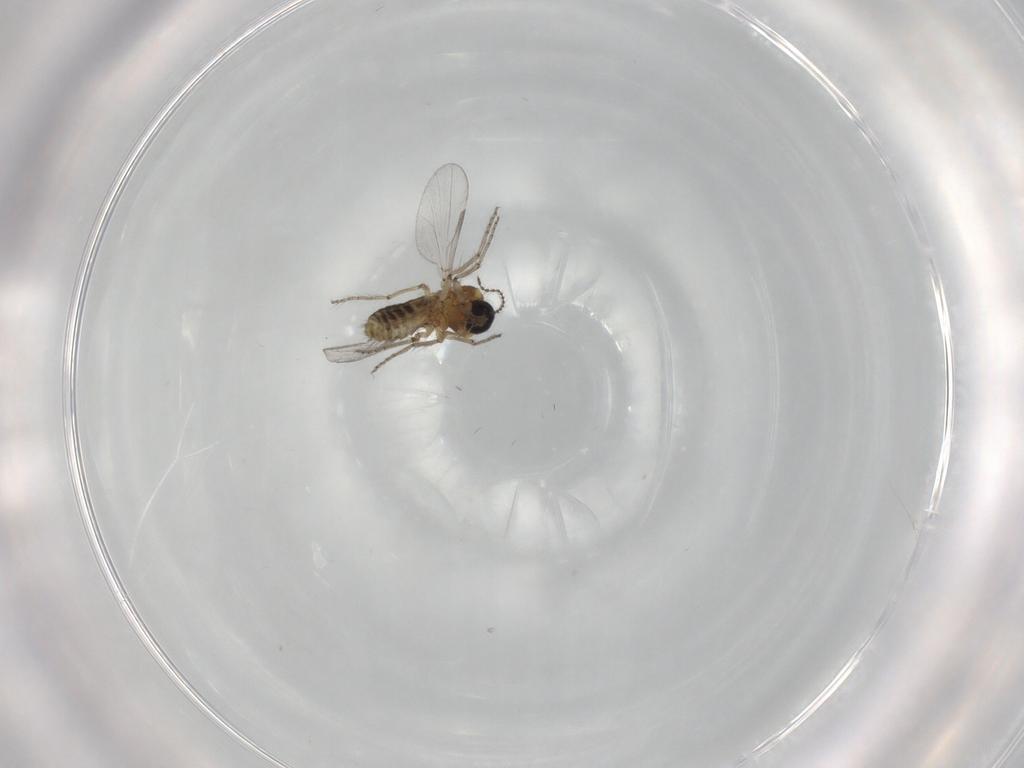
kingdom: Animalia
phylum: Arthropoda
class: Insecta
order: Diptera
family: Ceratopogonidae
